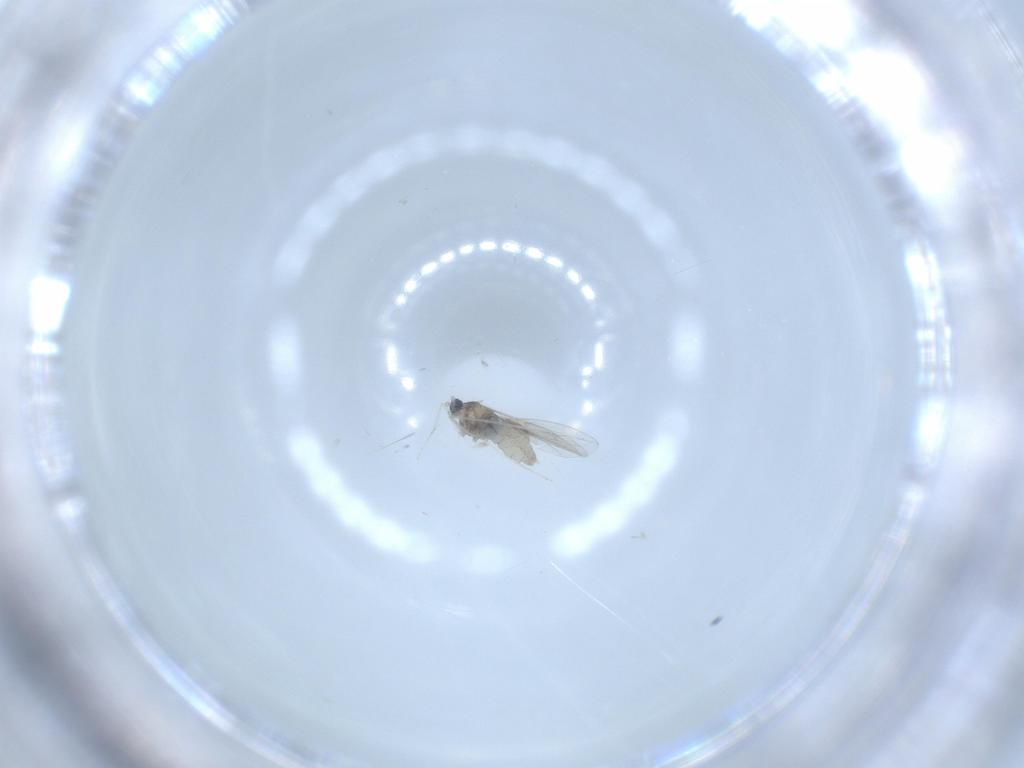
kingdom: Animalia
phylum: Arthropoda
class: Insecta
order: Diptera
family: Cecidomyiidae
